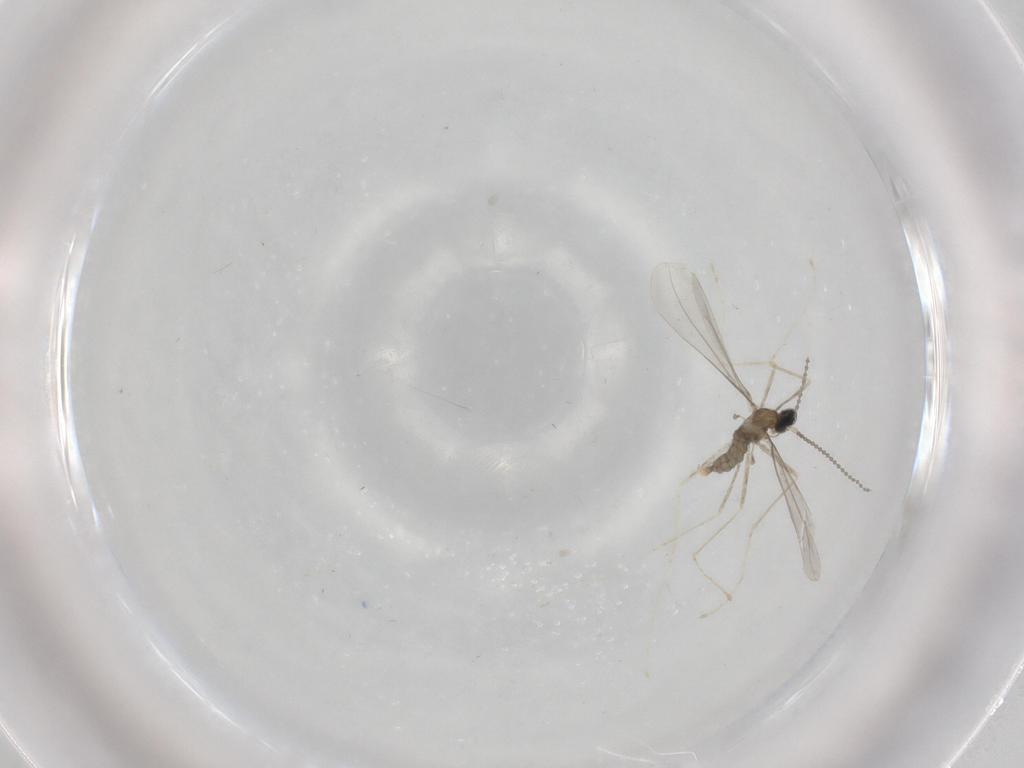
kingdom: Animalia
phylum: Arthropoda
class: Insecta
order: Diptera
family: Cecidomyiidae
